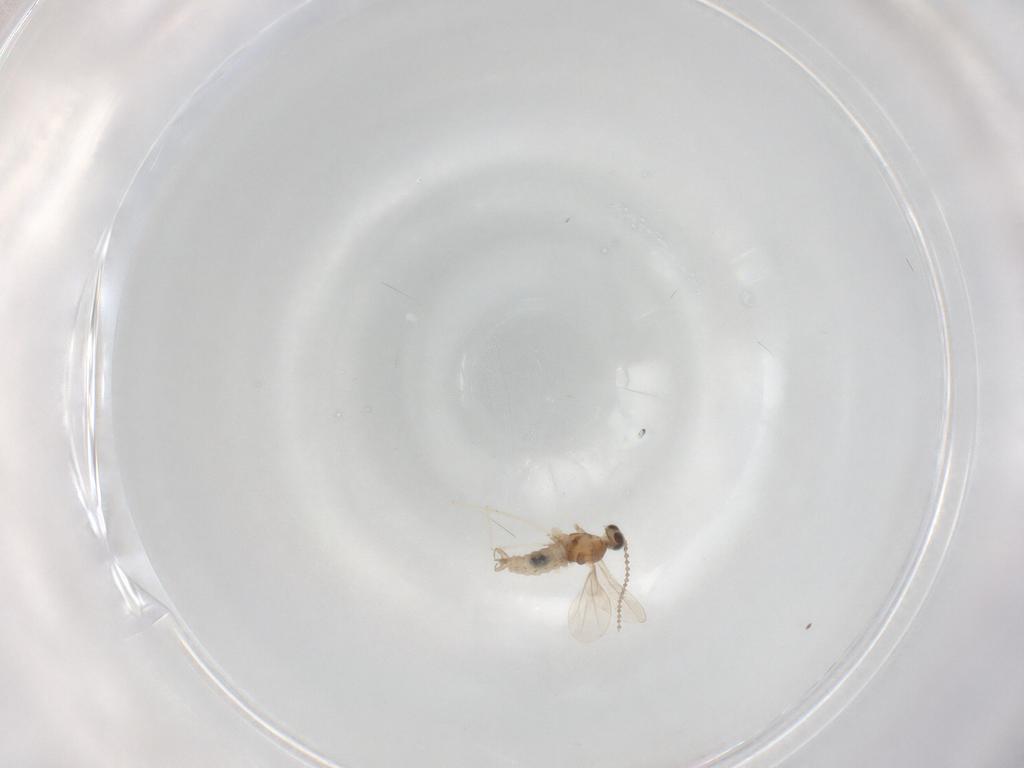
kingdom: Animalia
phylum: Arthropoda
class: Insecta
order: Diptera
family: Cecidomyiidae
